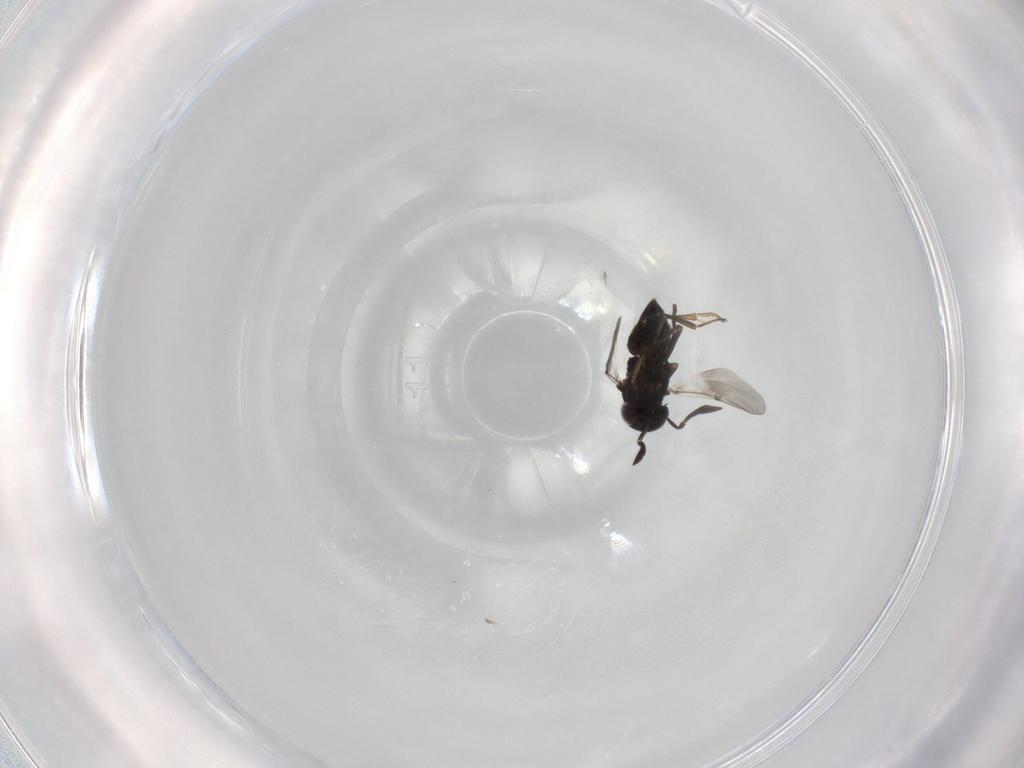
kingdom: Animalia
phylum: Arthropoda
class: Insecta
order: Hymenoptera
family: Encyrtidae
